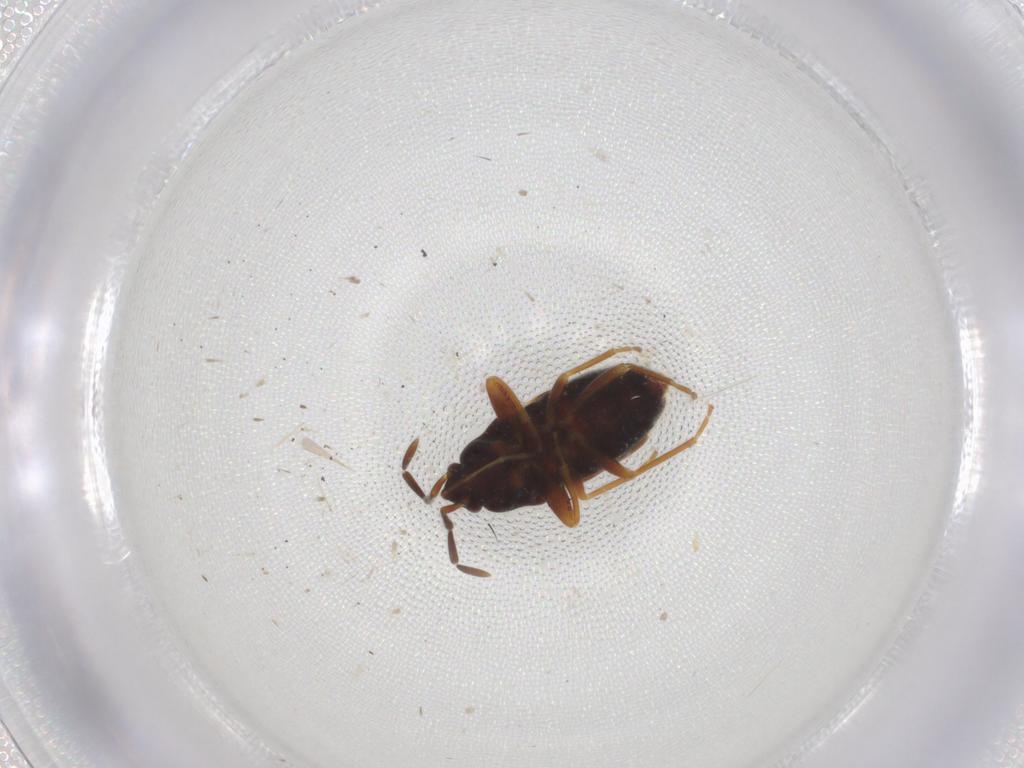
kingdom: Animalia
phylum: Arthropoda
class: Insecta
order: Hemiptera
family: Rhyparochromidae
